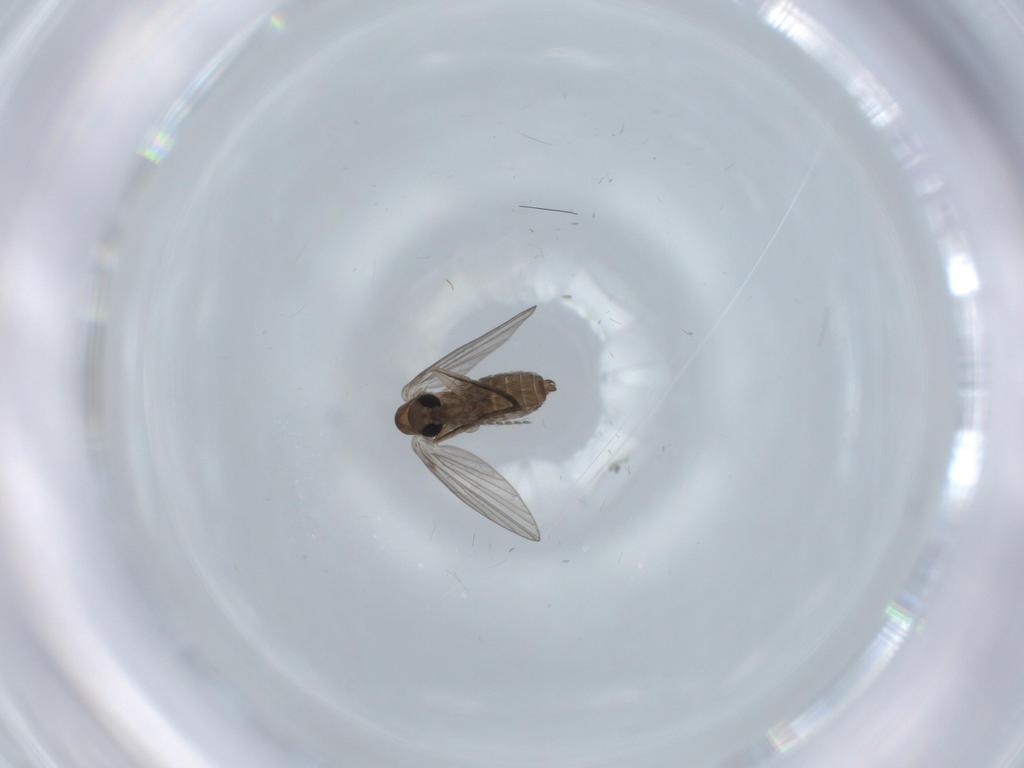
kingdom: Animalia
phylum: Arthropoda
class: Insecta
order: Diptera
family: Psychodidae
